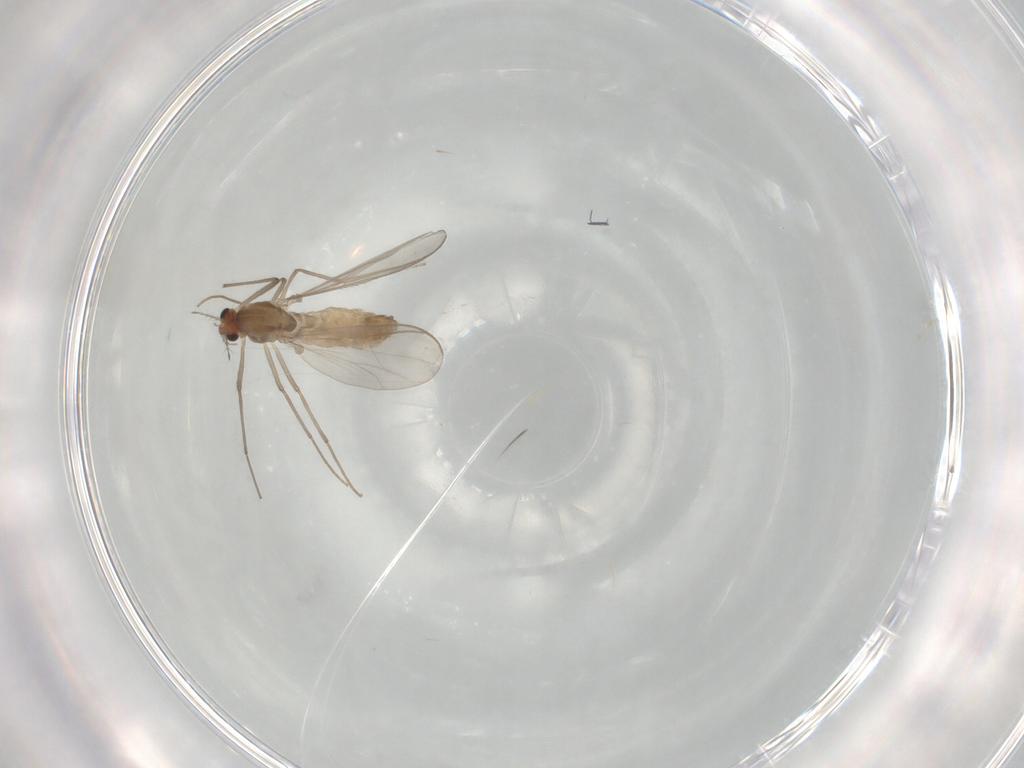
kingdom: Animalia
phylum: Arthropoda
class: Insecta
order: Diptera
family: Chironomidae
